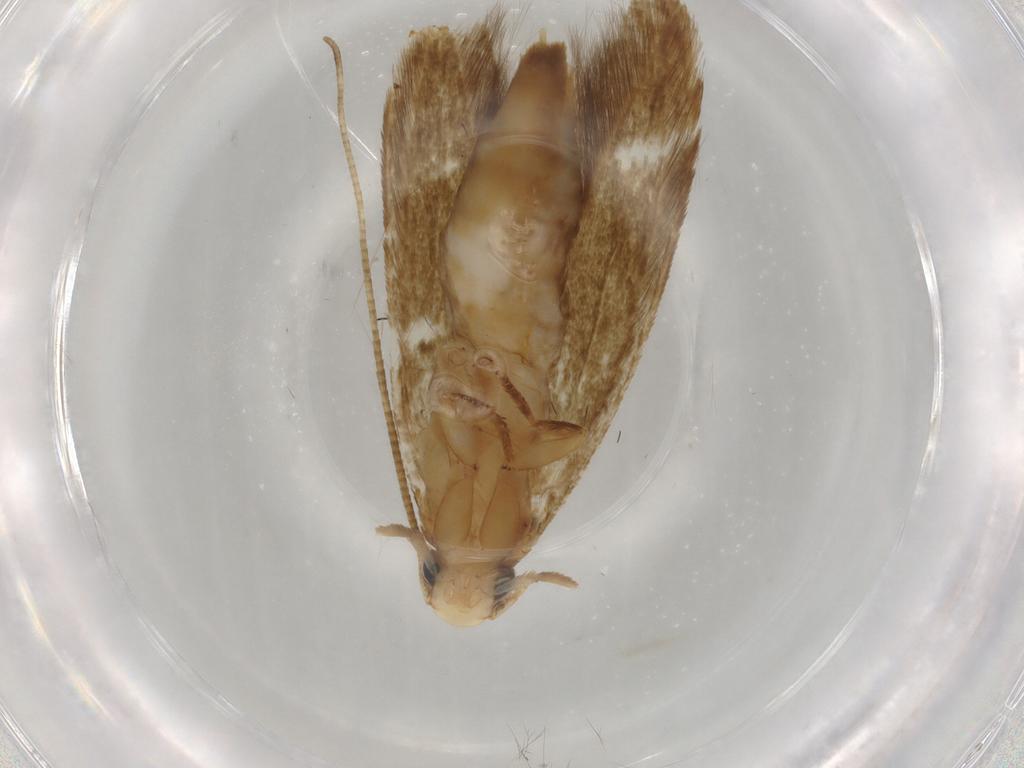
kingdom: Animalia
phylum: Arthropoda
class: Insecta
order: Lepidoptera
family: Tineidae
